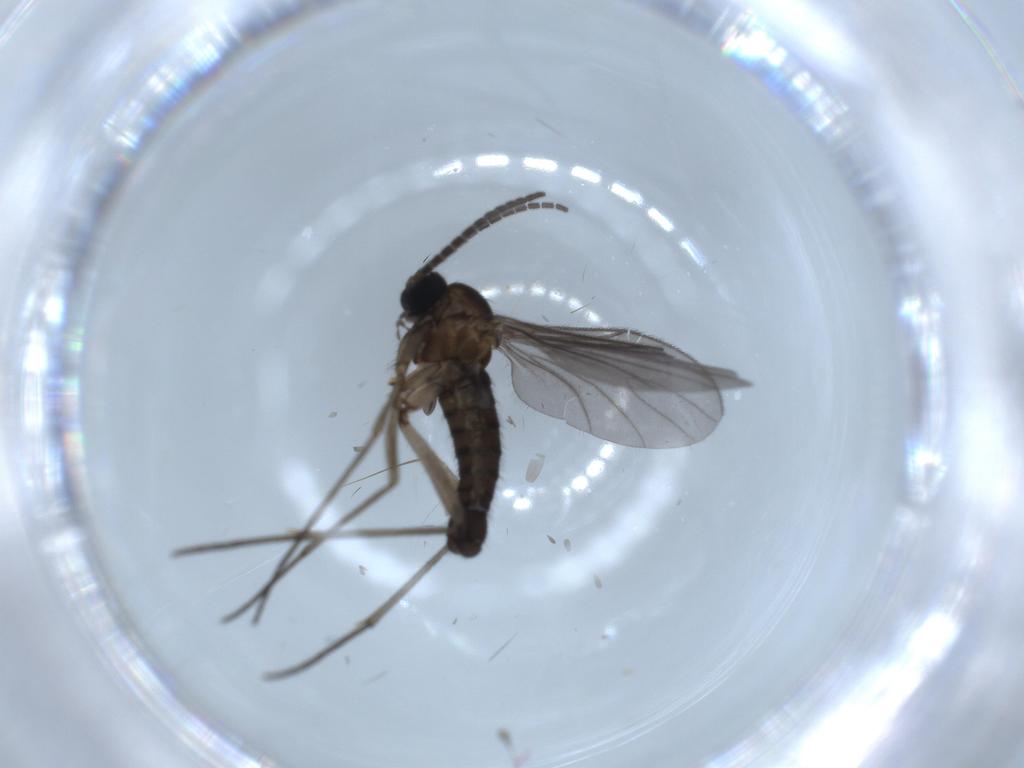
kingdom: Animalia
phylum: Arthropoda
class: Insecta
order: Diptera
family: Sciaridae
